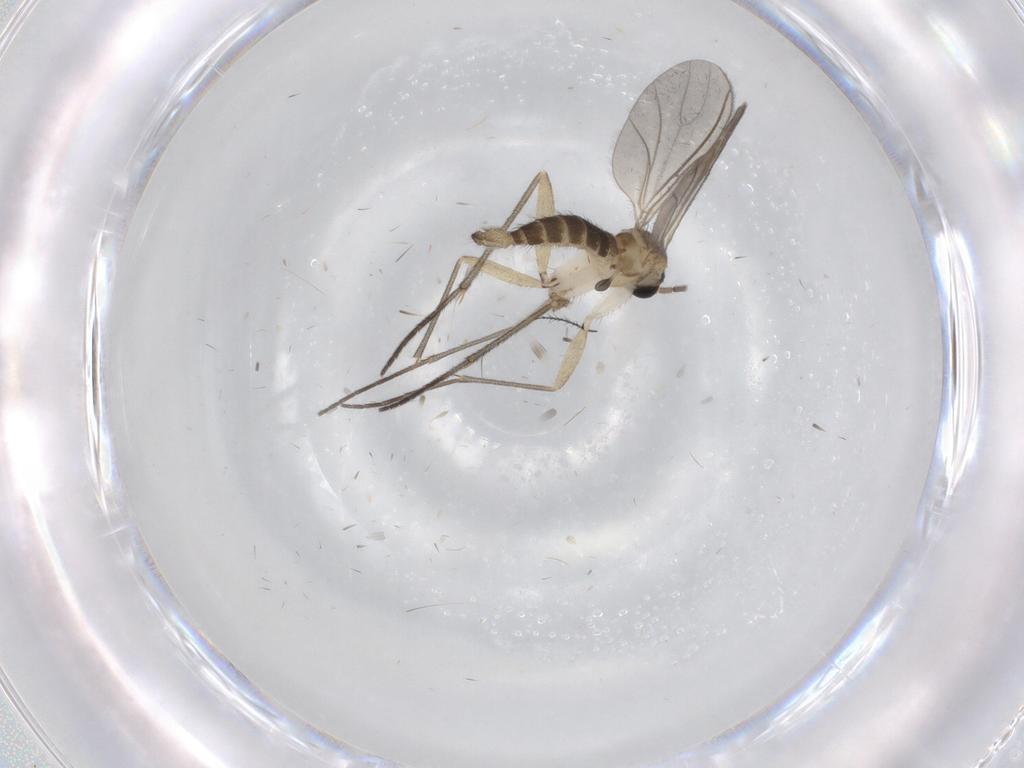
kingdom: Animalia
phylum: Arthropoda
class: Insecta
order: Diptera
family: Sciaridae
